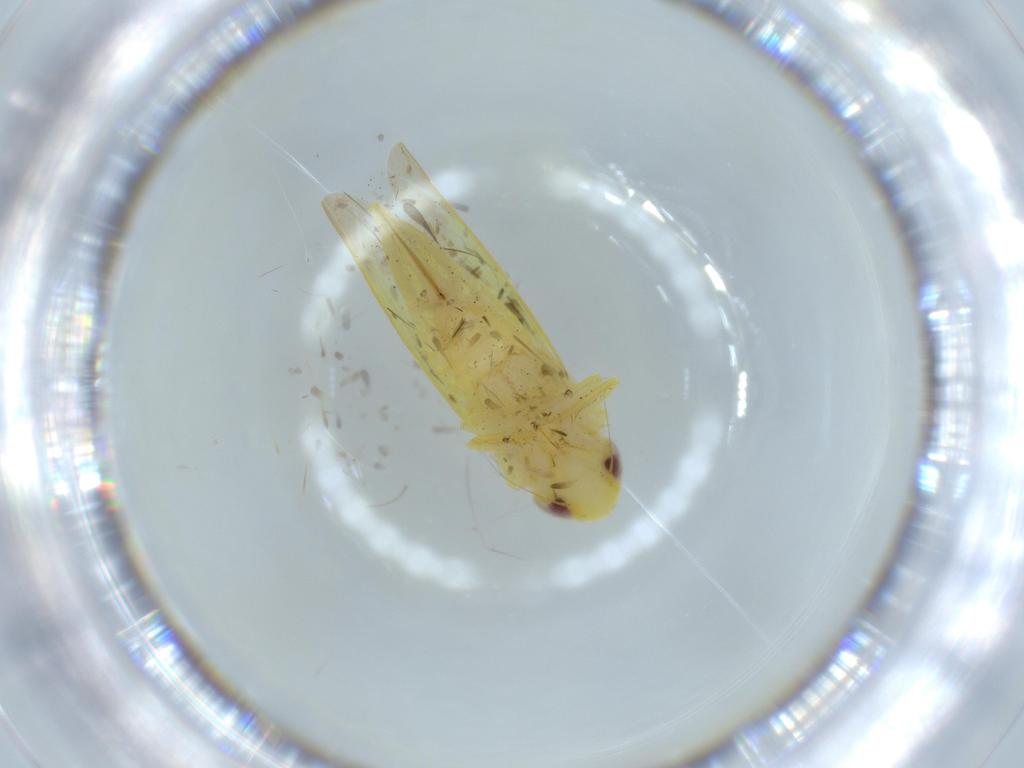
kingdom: Animalia
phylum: Arthropoda
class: Insecta
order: Hemiptera
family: Cicadellidae
